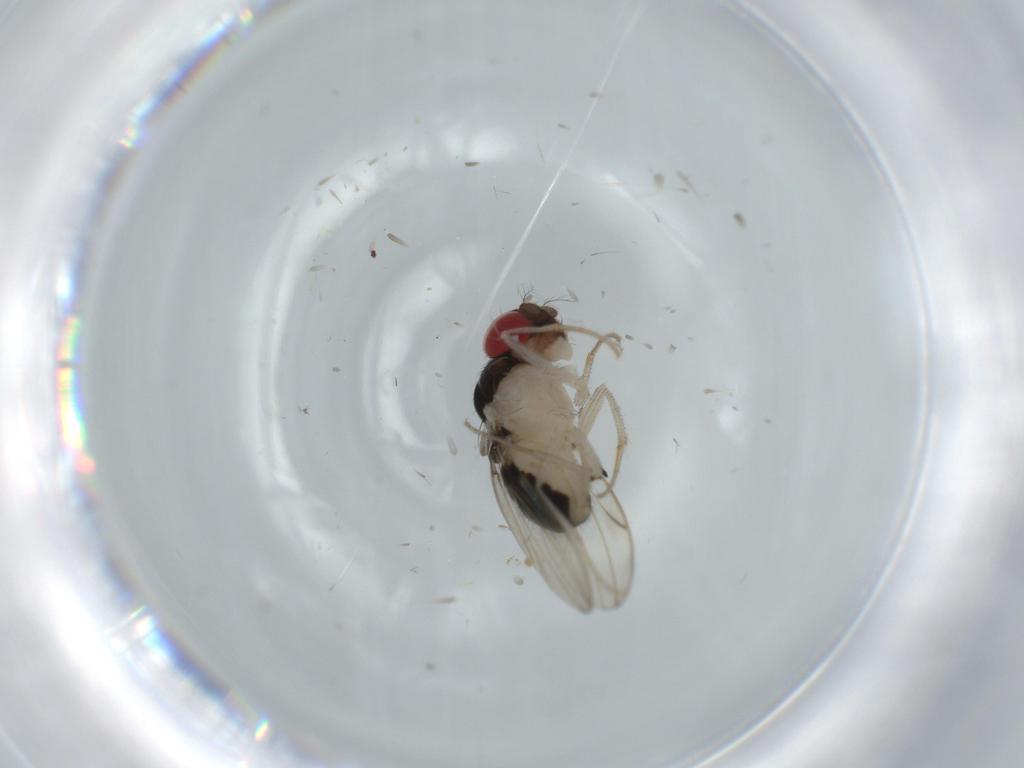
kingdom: Animalia
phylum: Arthropoda
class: Insecta
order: Diptera
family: Drosophilidae
